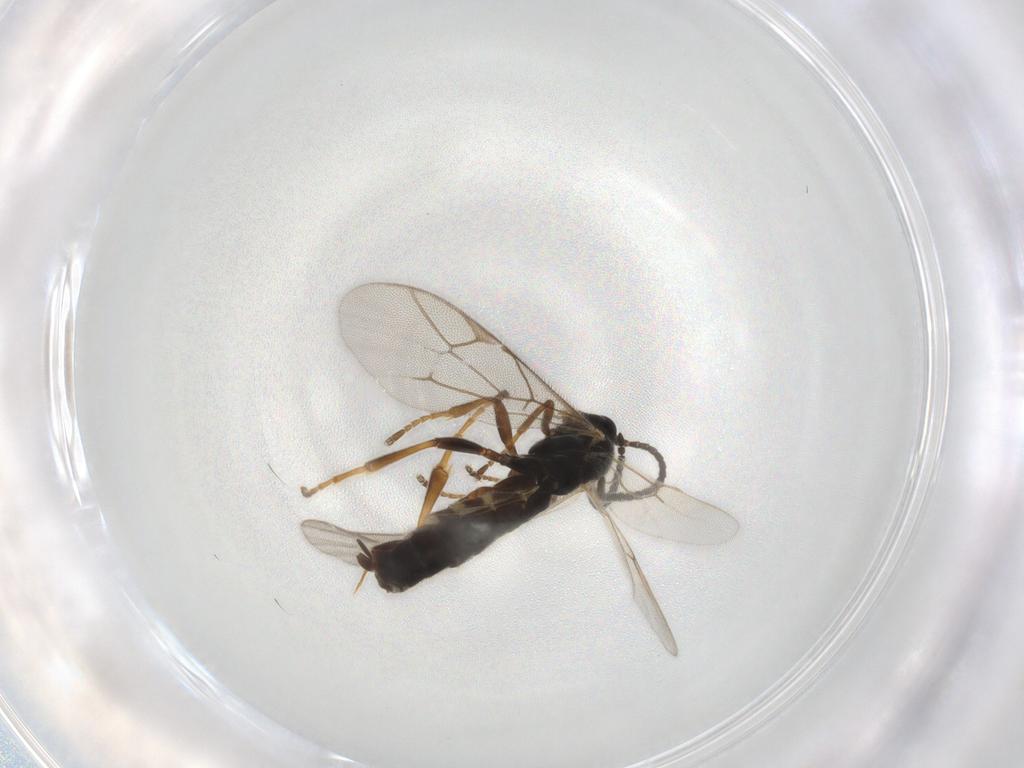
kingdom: Animalia
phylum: Arthropoda
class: Insecta
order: Hymenoptera
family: Ichneumonidae
